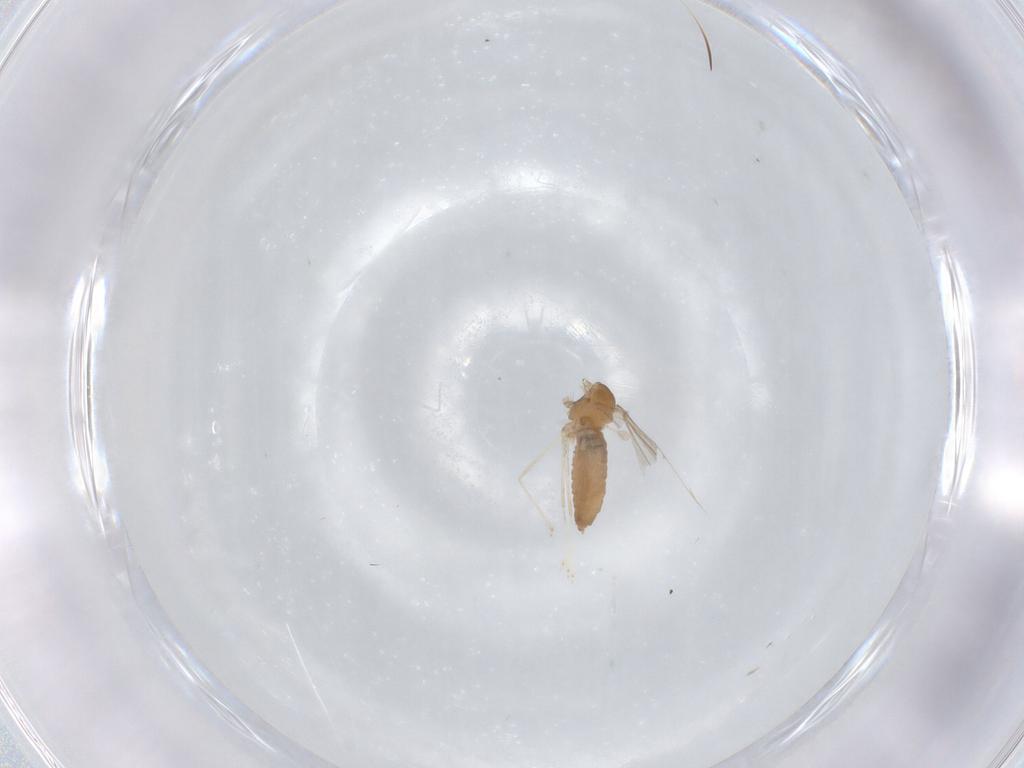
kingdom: Animalia
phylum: Arthropoda
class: Insecta
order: Diptera
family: Cecidomyiidae
